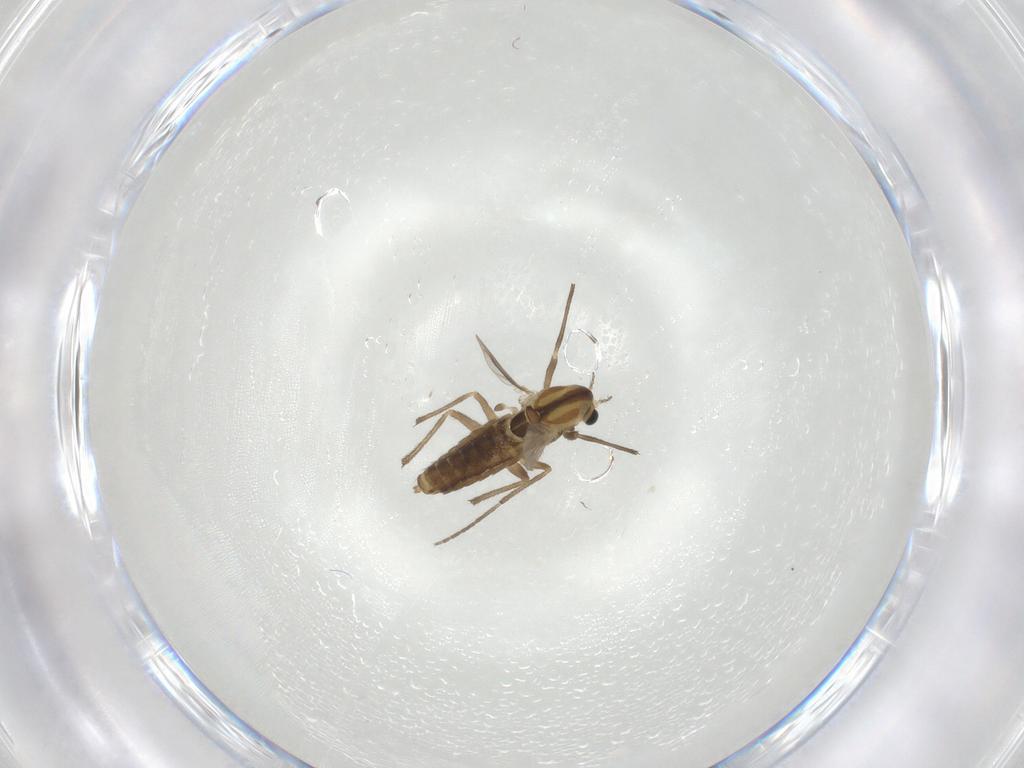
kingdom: Animalia
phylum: Arthropoda
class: Insecta
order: Diptera
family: Chironomidae
